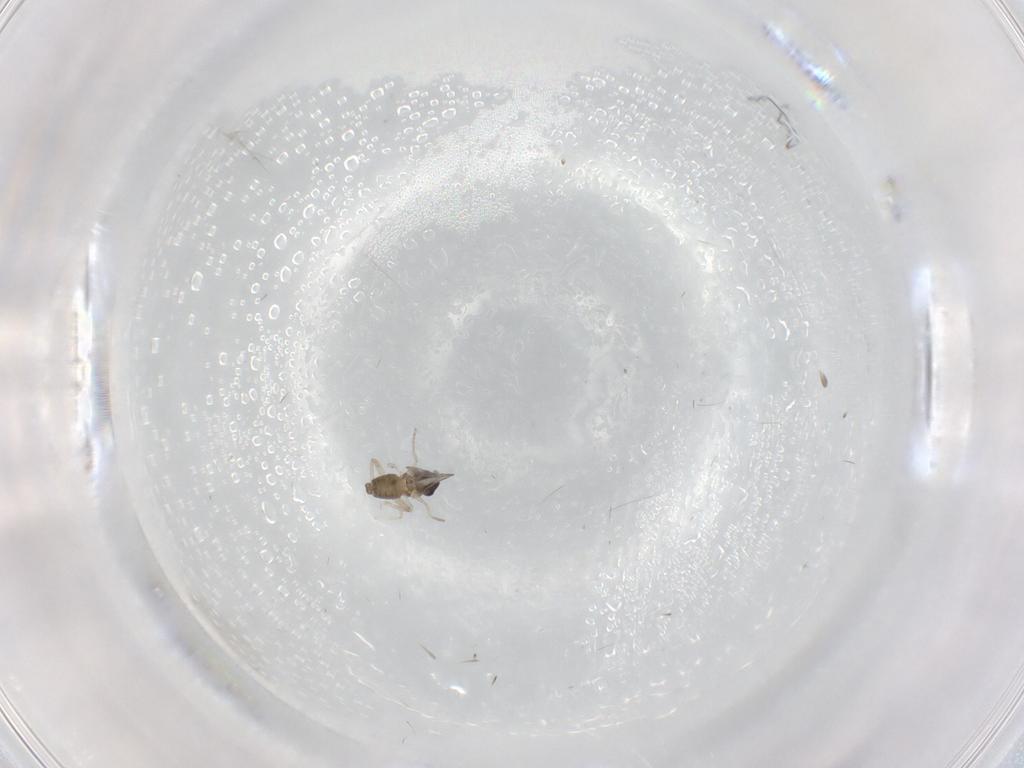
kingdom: Animalia
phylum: Arthropoda
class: Insecta
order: Diptera
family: Cecidomyiidae
